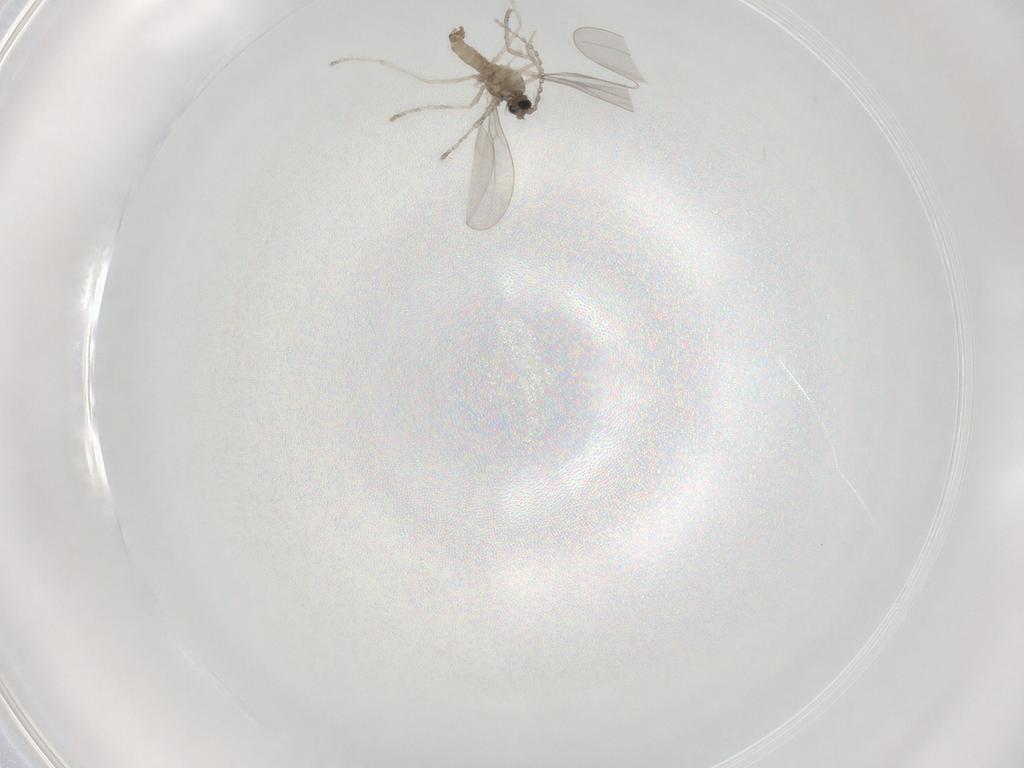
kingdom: Animalia
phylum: Arthropoda
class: Insecta
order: Diptera
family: Cecidomyiidae
